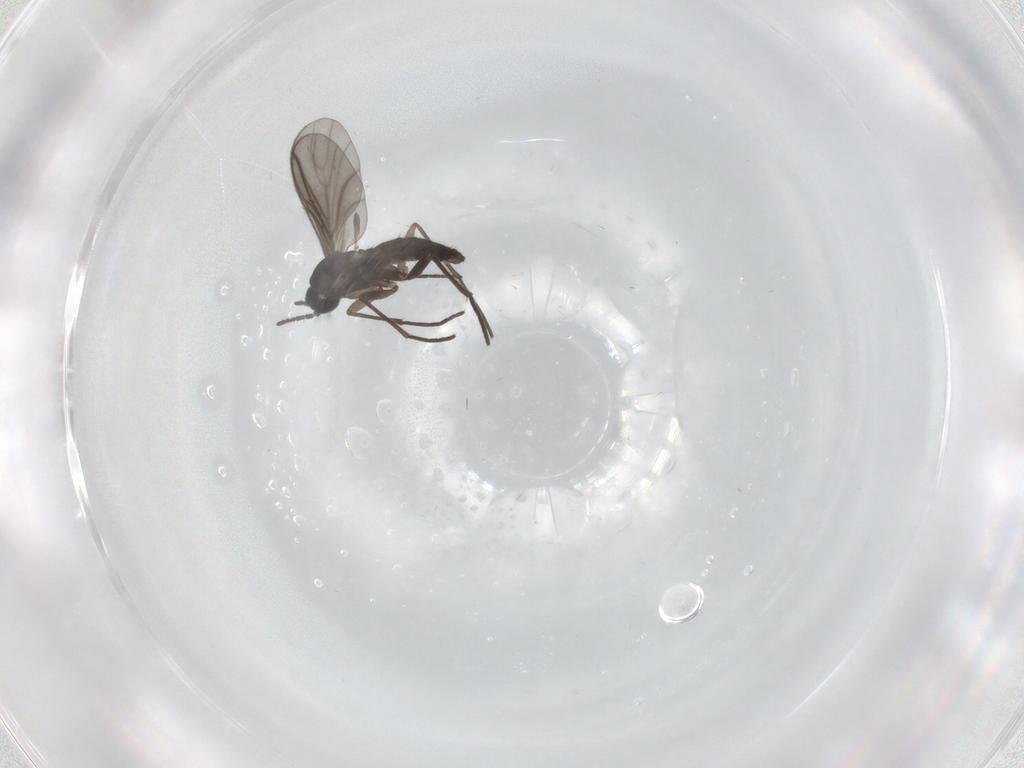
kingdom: Animalia
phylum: Arthropoda
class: Insecta
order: Diptera
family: Sciaridae
